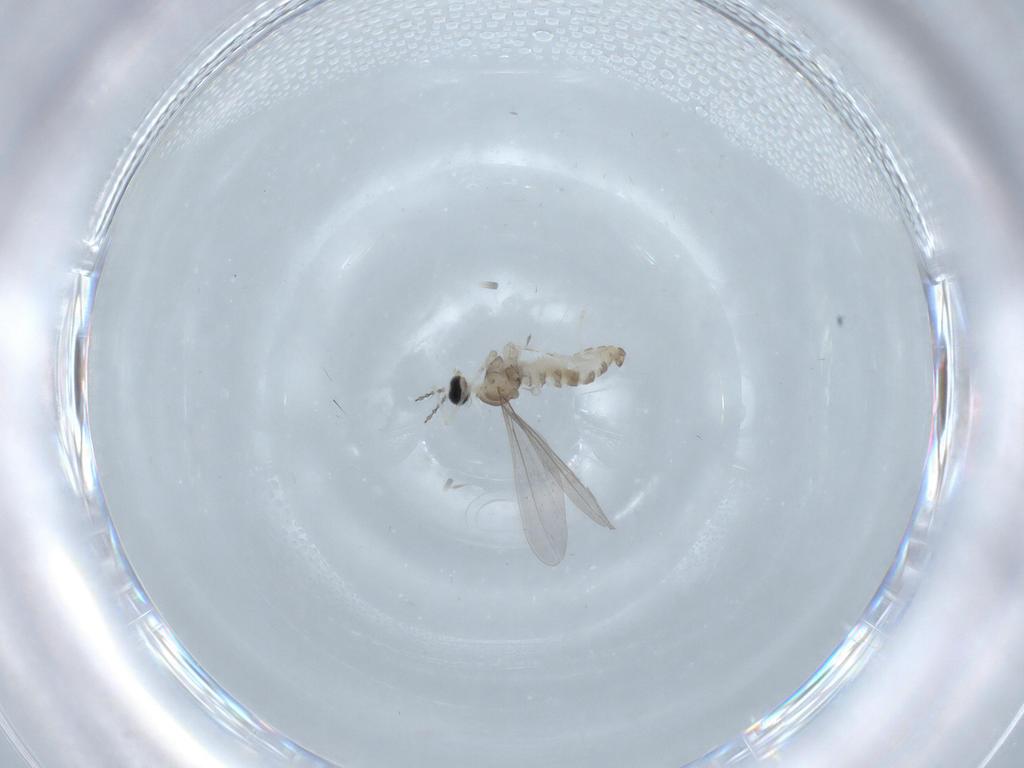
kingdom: Animalia
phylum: Arthropoda
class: Insecta
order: Diptera
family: Cecidomyiidae
